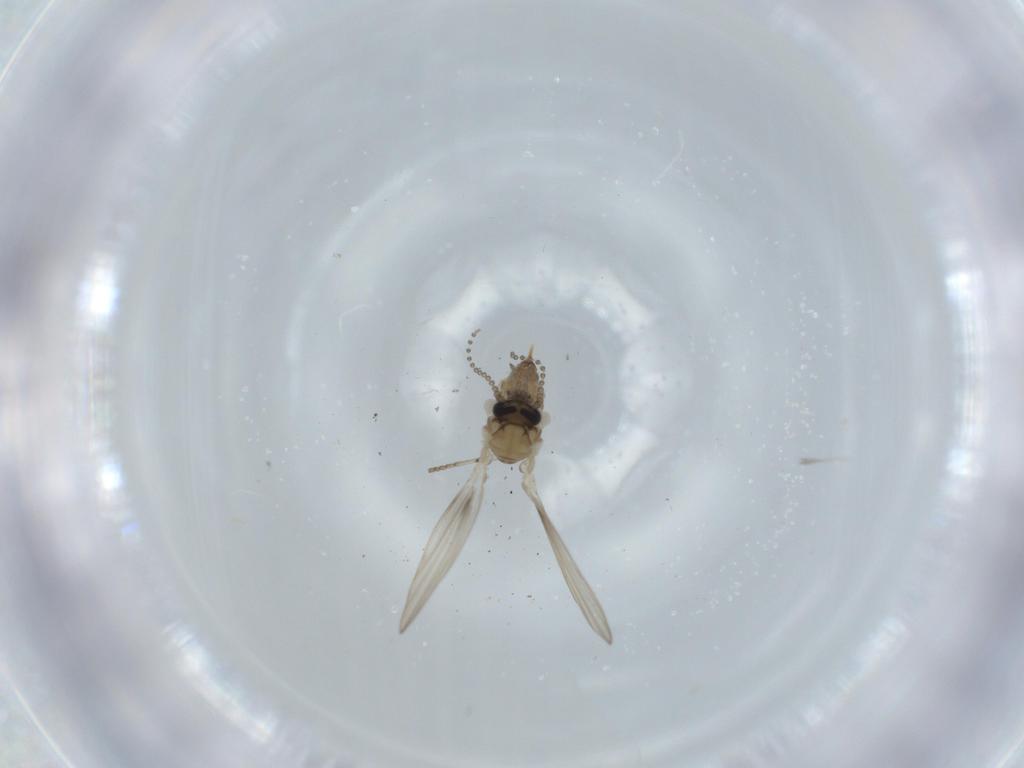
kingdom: Animalia
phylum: Arthropoda
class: Insecta
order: Diptera
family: Psychodidae
